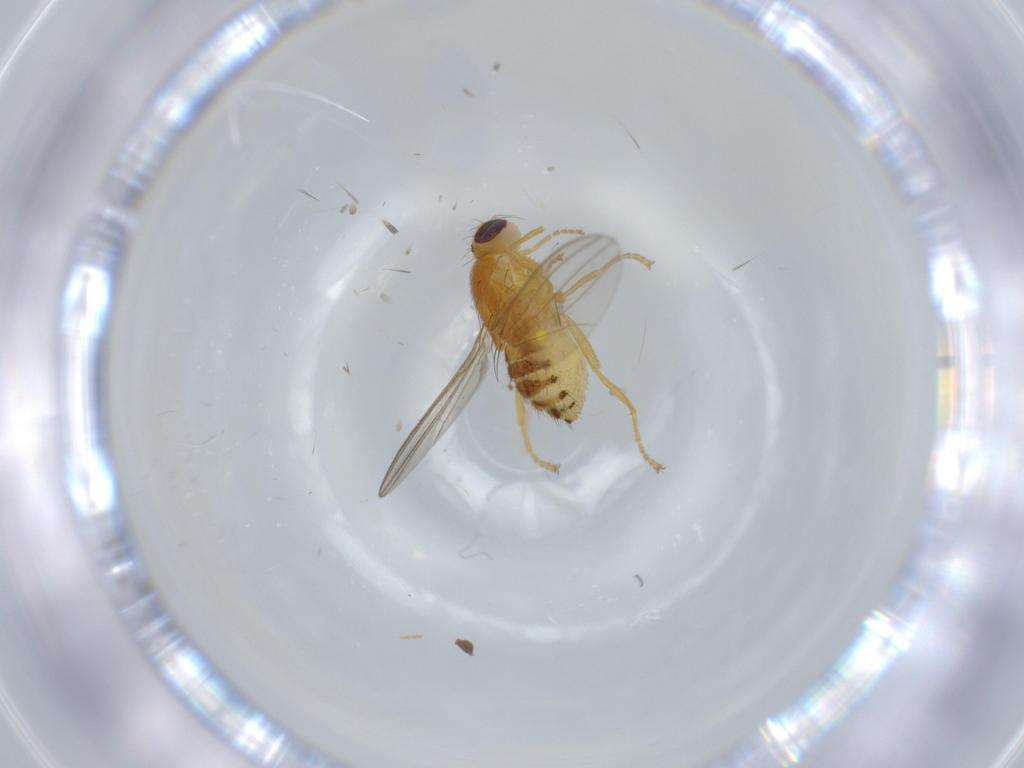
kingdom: Animalia
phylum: Arthropoda
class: Insecta
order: Diptera
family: Chyromyidae
